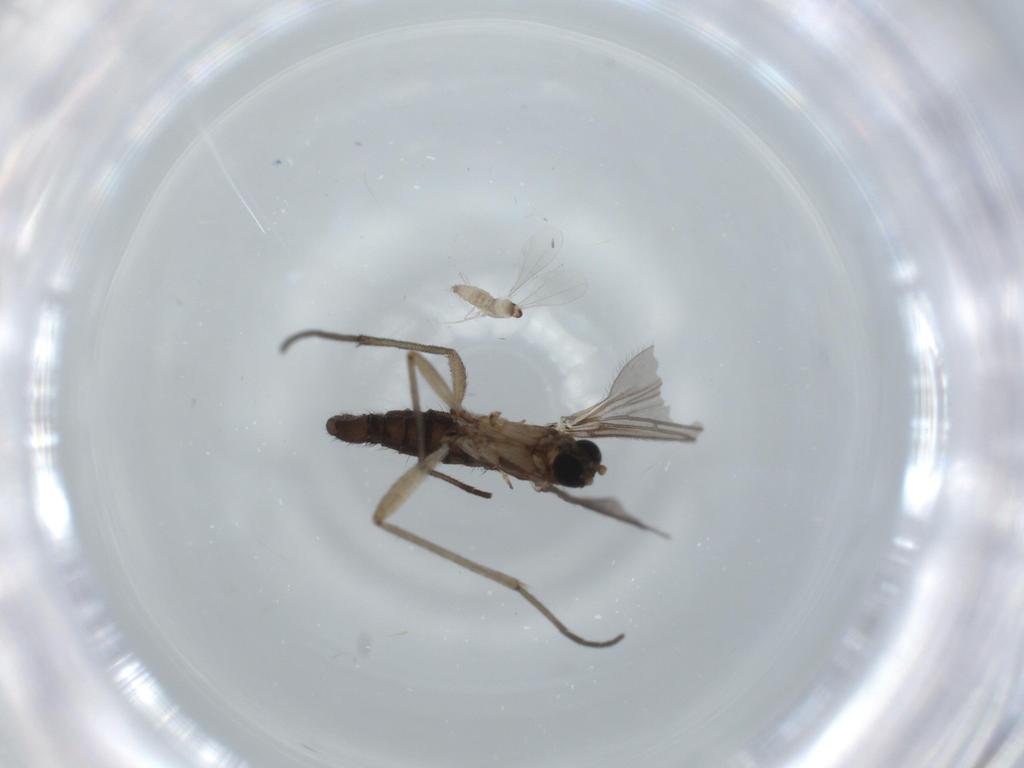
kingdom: Animalia
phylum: Arthropoda
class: Insecta
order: Diptera
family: Sciaridae
